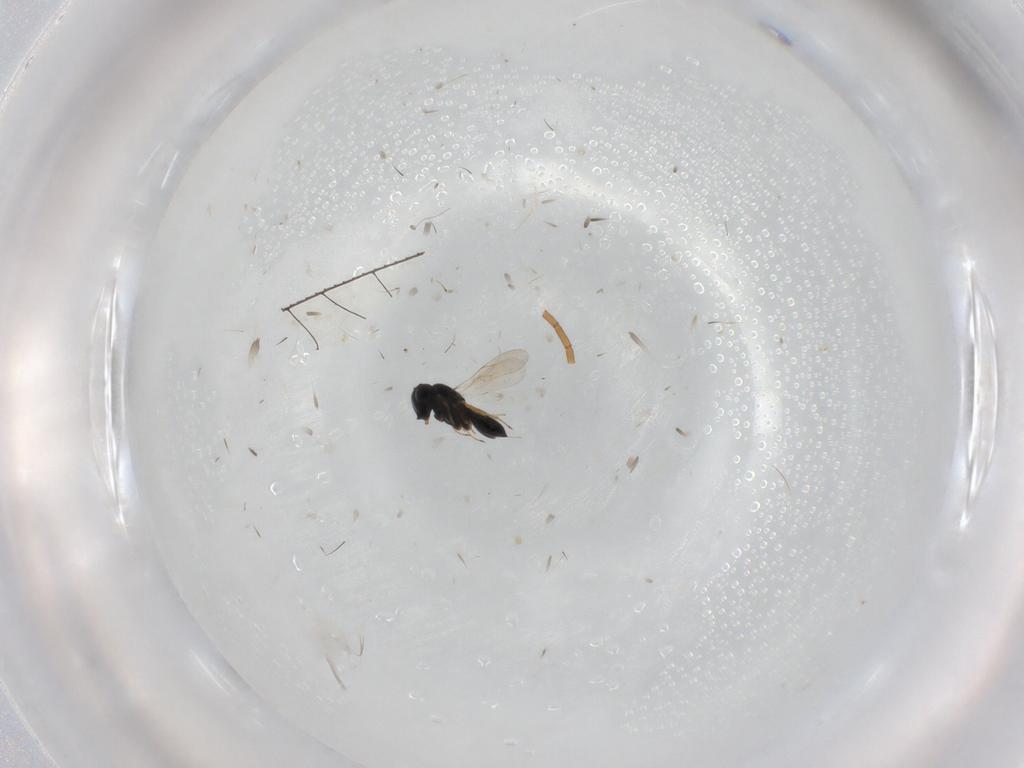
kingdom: Animalia
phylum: Arthropoda
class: Insecta
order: Hymenoptera
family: Scelionidae
